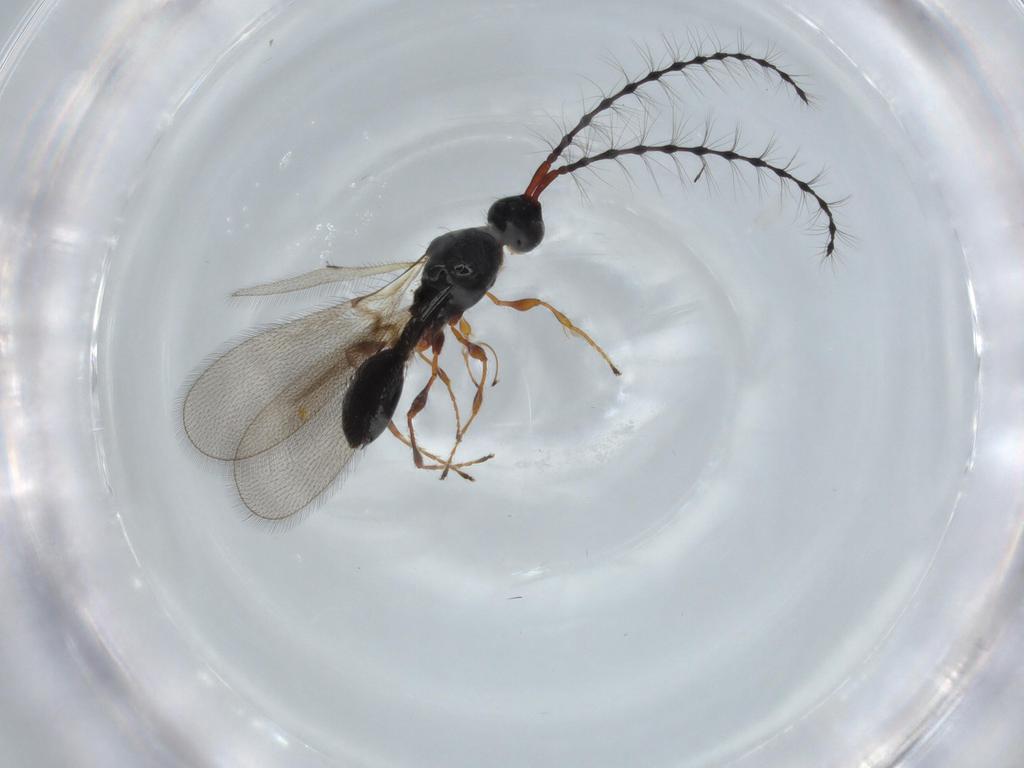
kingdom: Animalia
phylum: Arthropoda
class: Insecta
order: Hymenoptera
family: Diapriidae
